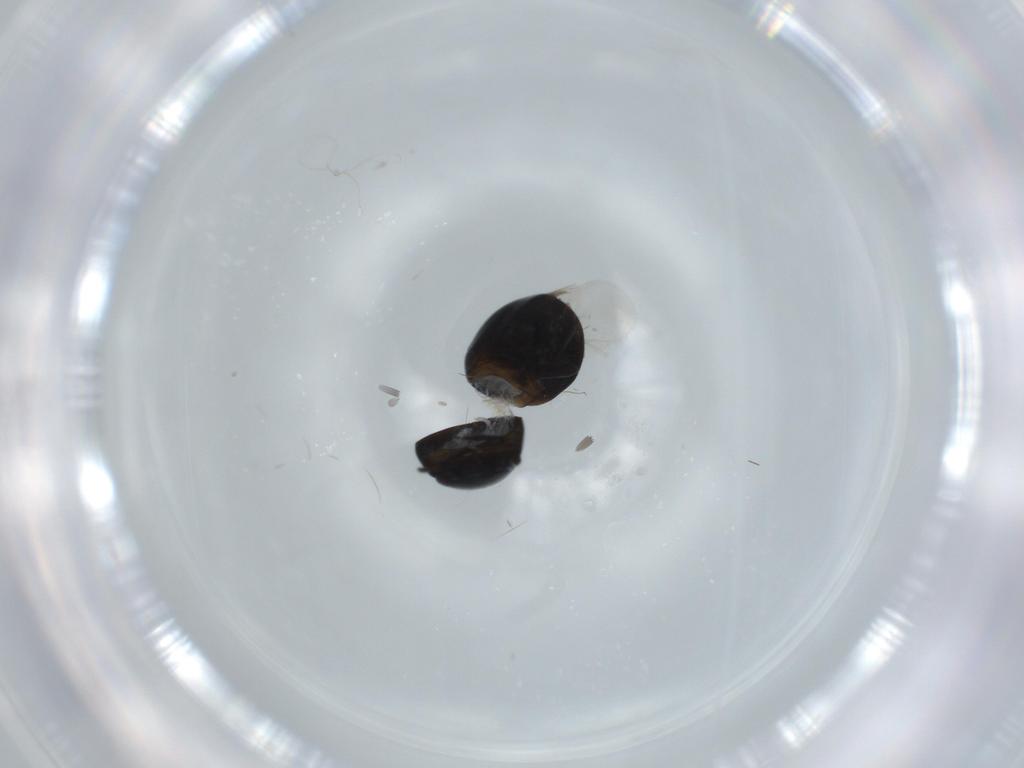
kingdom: Animalia
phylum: Arthropoda
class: Insecta
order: Coleoptera
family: Cybocephalidae
